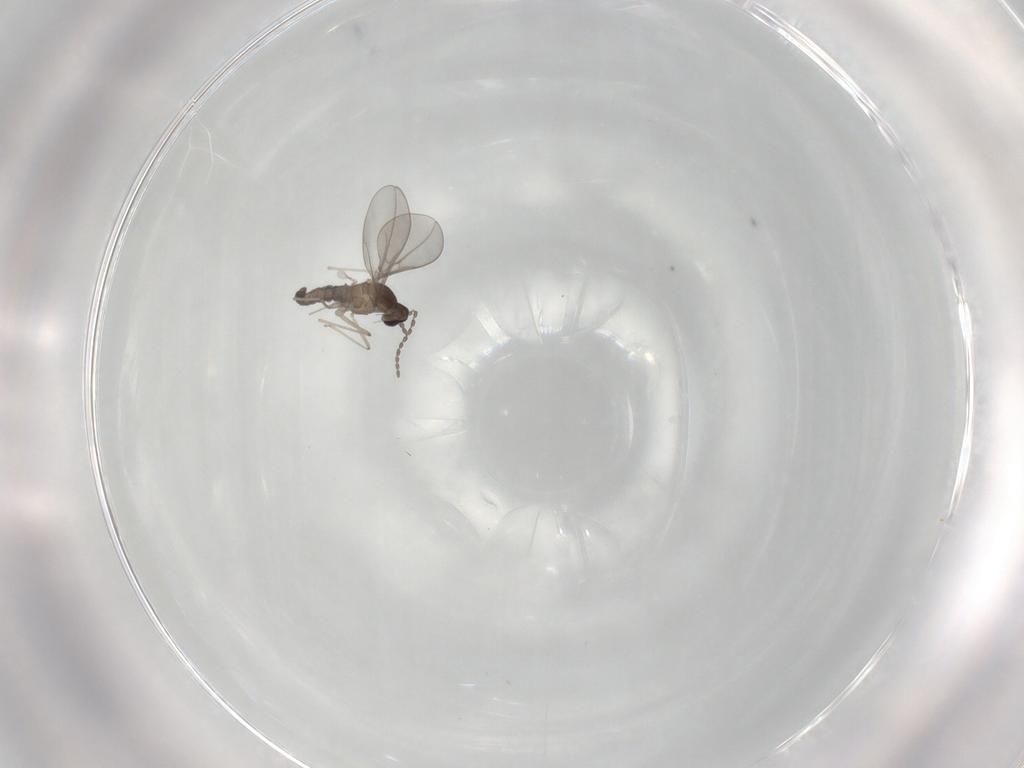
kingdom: Animalia
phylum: Arthropoda
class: Insecta
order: Diptera
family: Cecidomyiidae
